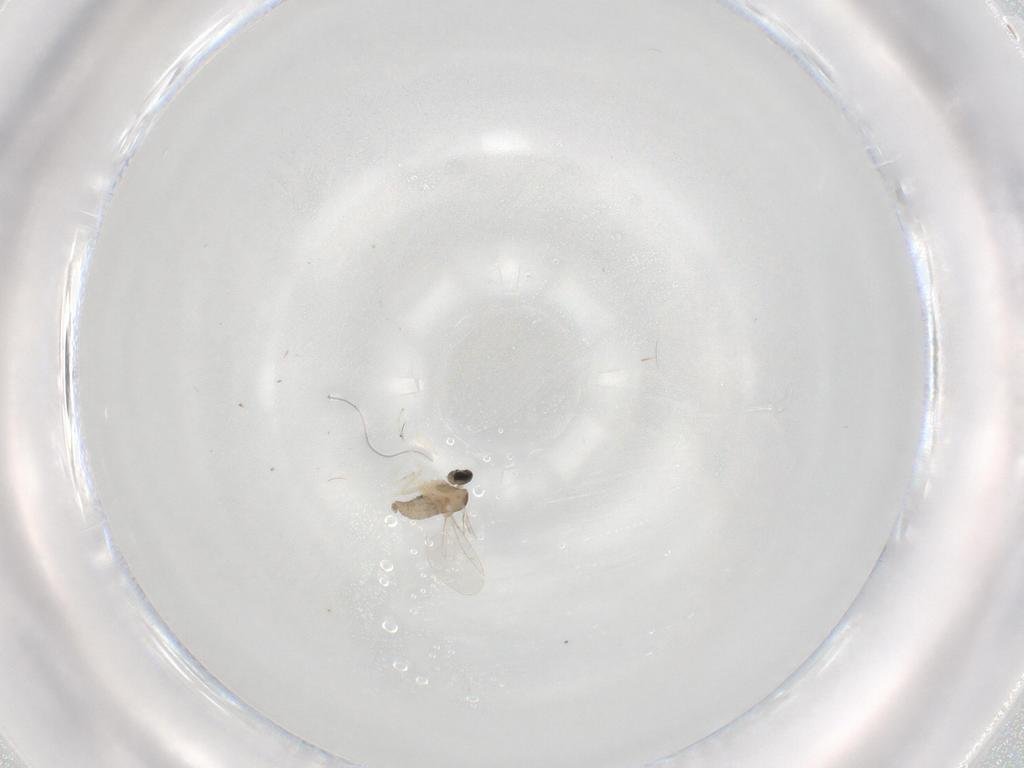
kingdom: Animalia
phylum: Arthropoda
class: Insecta
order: Diptera
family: Cecidomyiidae
